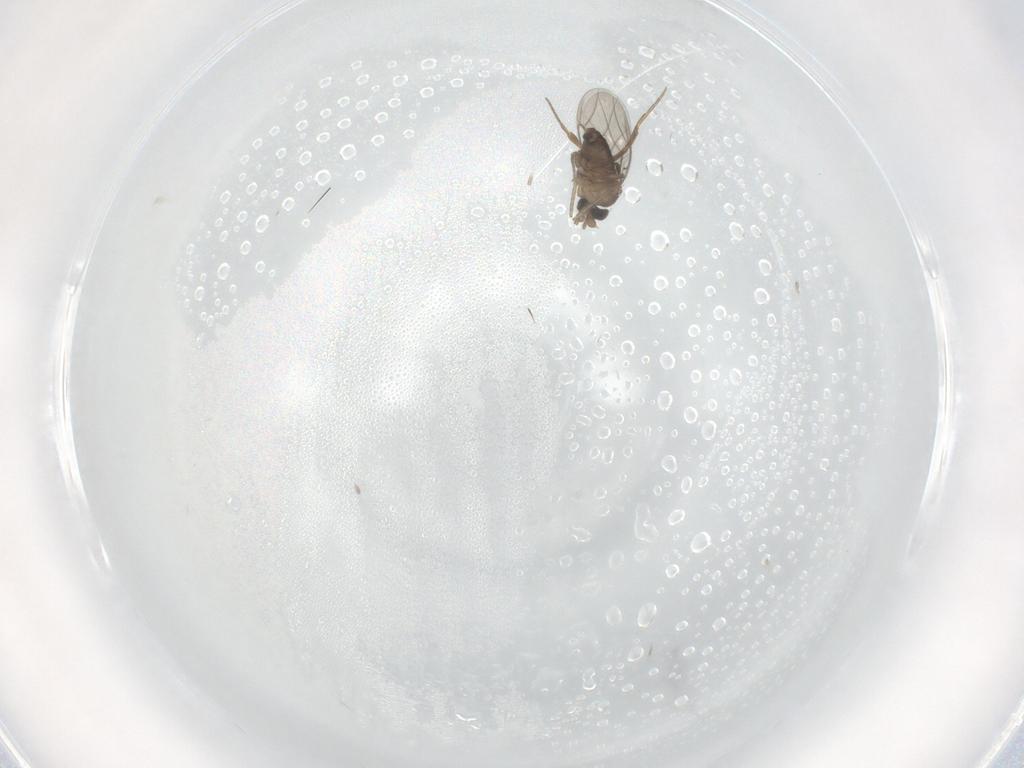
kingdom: Animalia
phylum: Arthropoda
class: Insecta
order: Diptera
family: Phoridae
